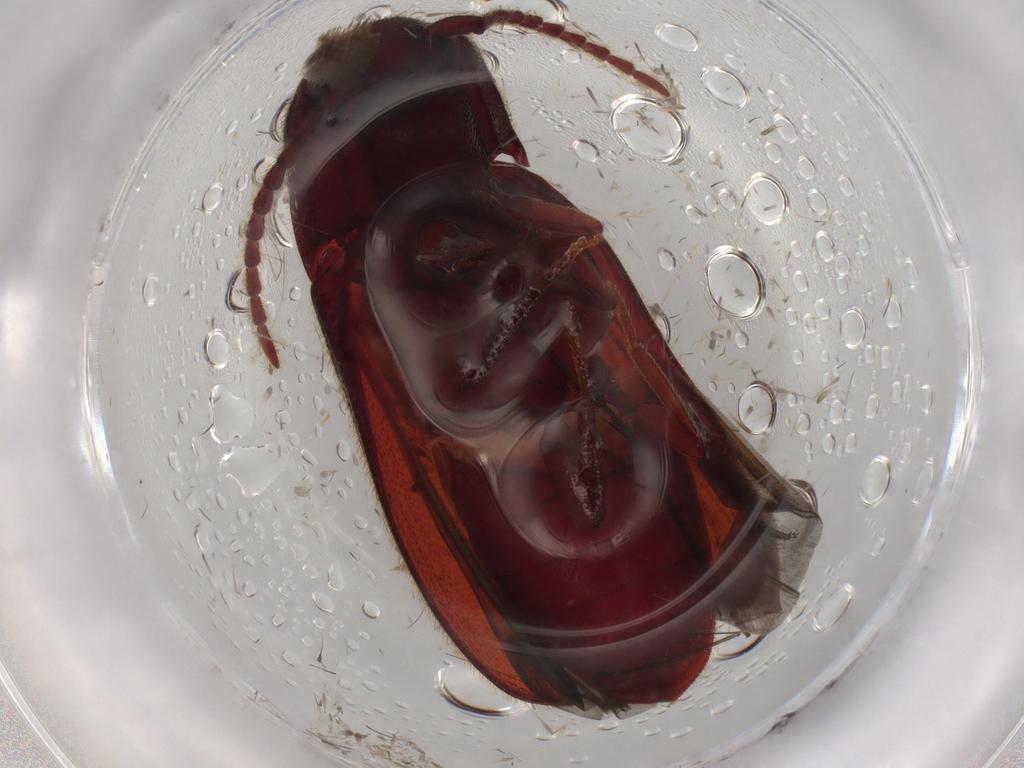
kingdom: Animalia
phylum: Arthropoda
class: Insecta
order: Coleoptera
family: Eucnemidae
